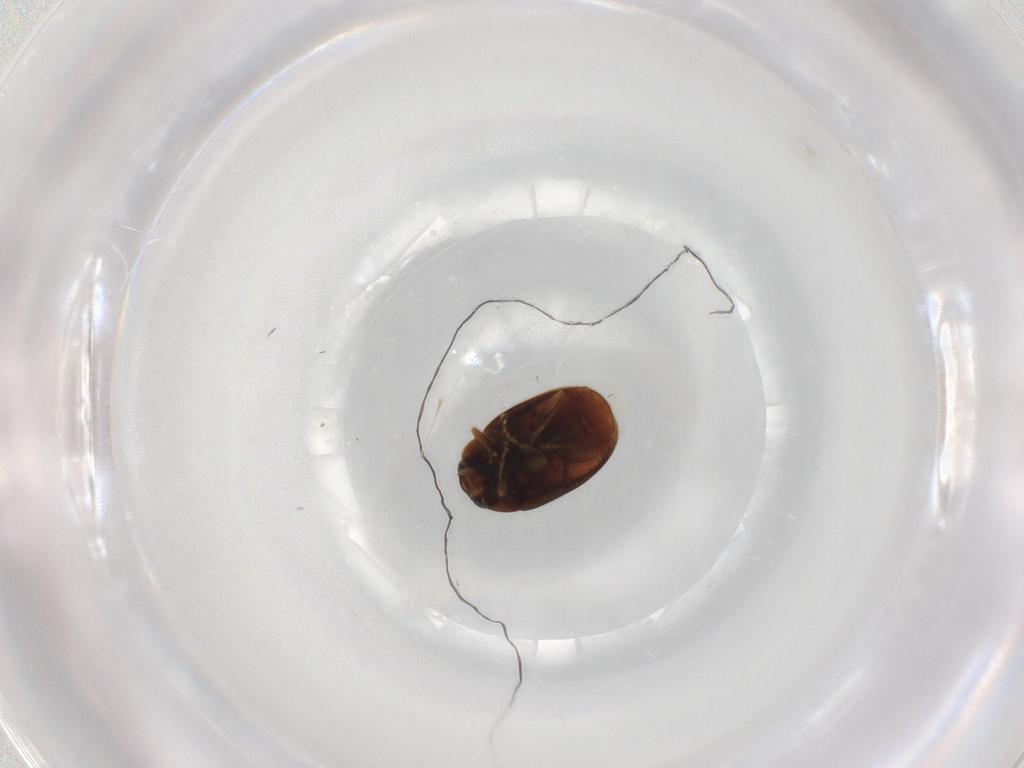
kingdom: Animalia
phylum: Arthropoda
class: Insecta
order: Coleoptera
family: Coccinellidae
